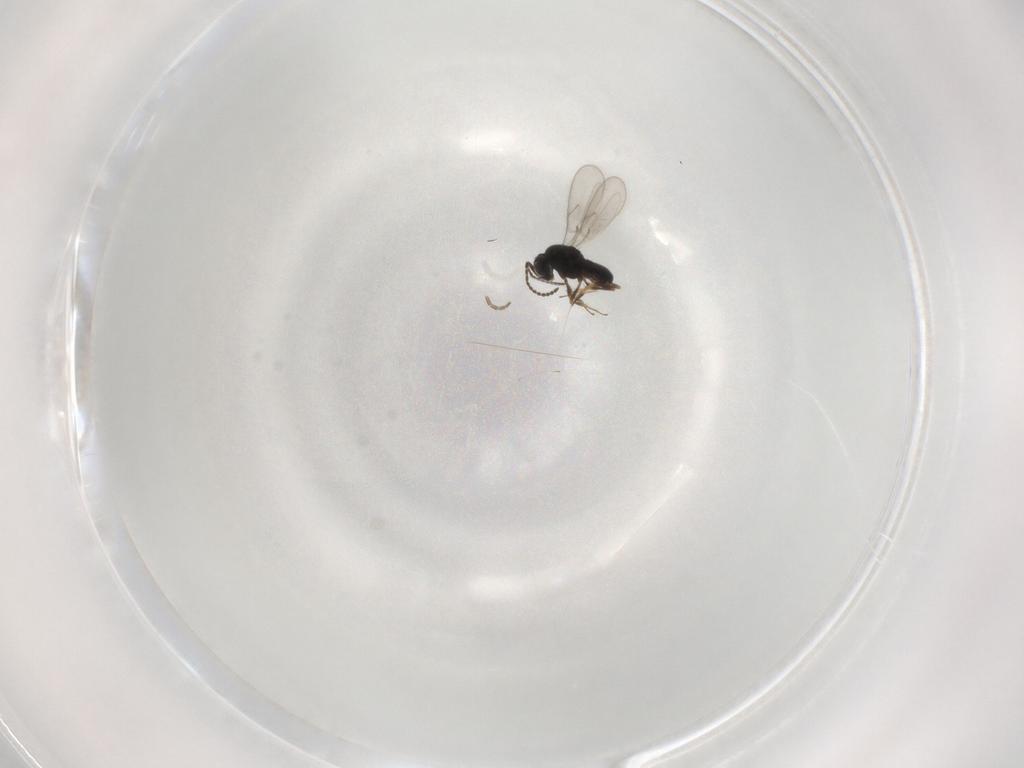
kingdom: Animalia
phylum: Arthropoda
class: Insecta
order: Hymenoptera
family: Scelionidae
